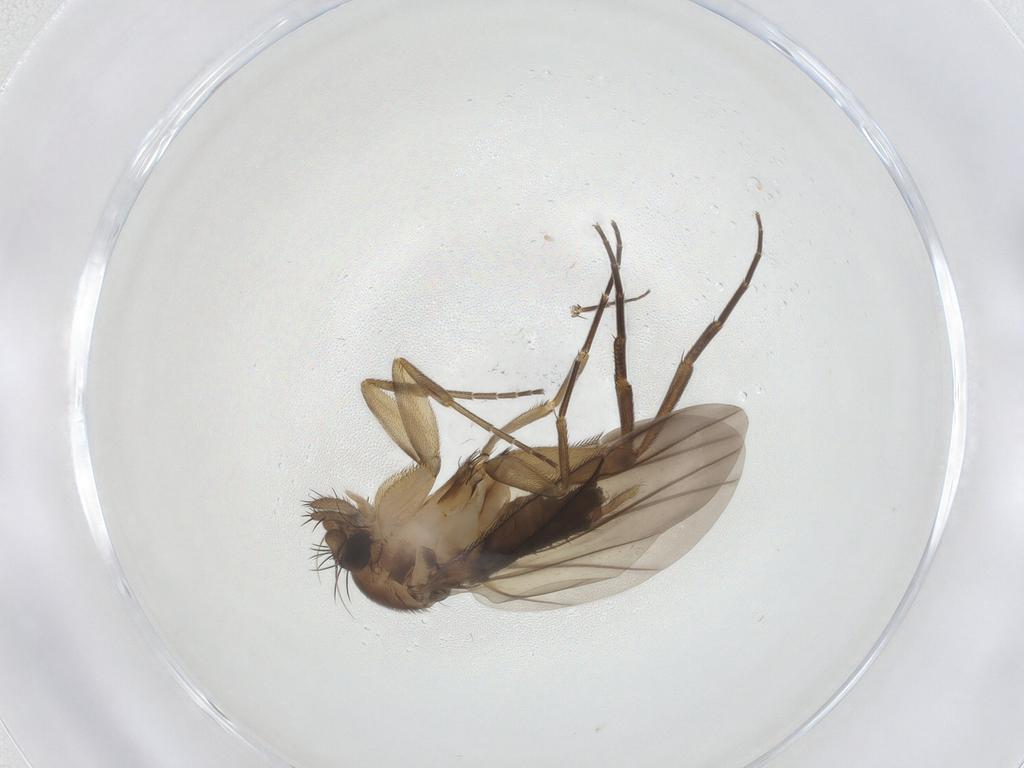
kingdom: Animalia
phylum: Arthropoda
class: Insecta
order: Diptera
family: Phoridae
